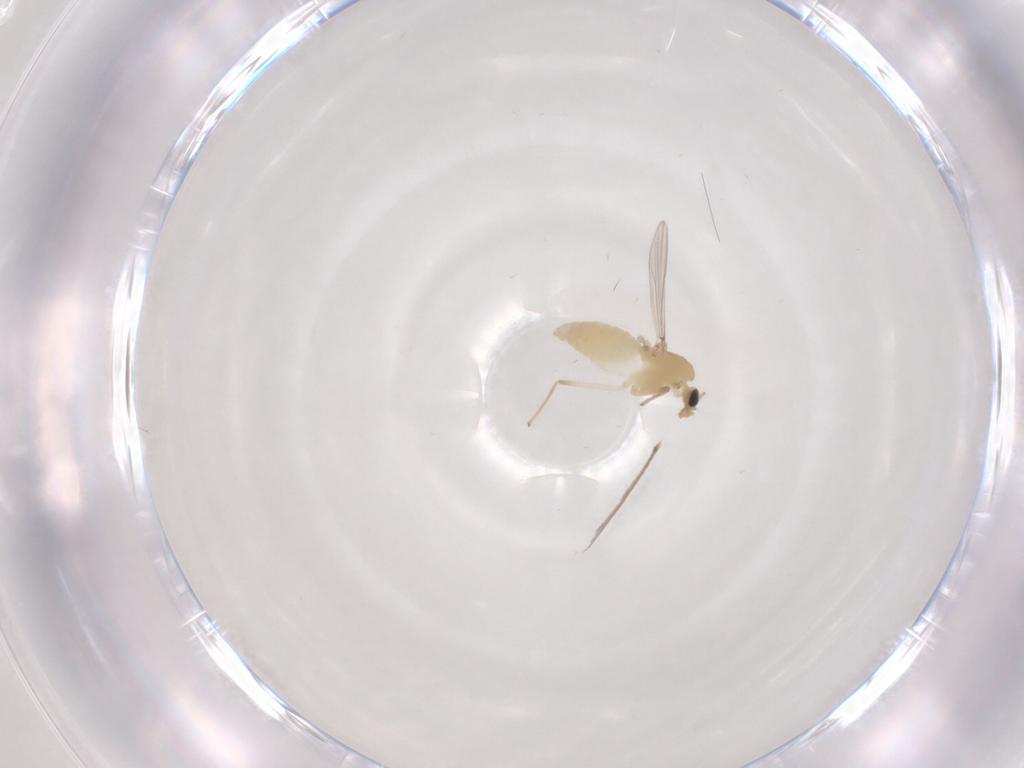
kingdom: Animalia
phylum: Arthropoda
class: Insecta
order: Diptera
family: Chironomidae
